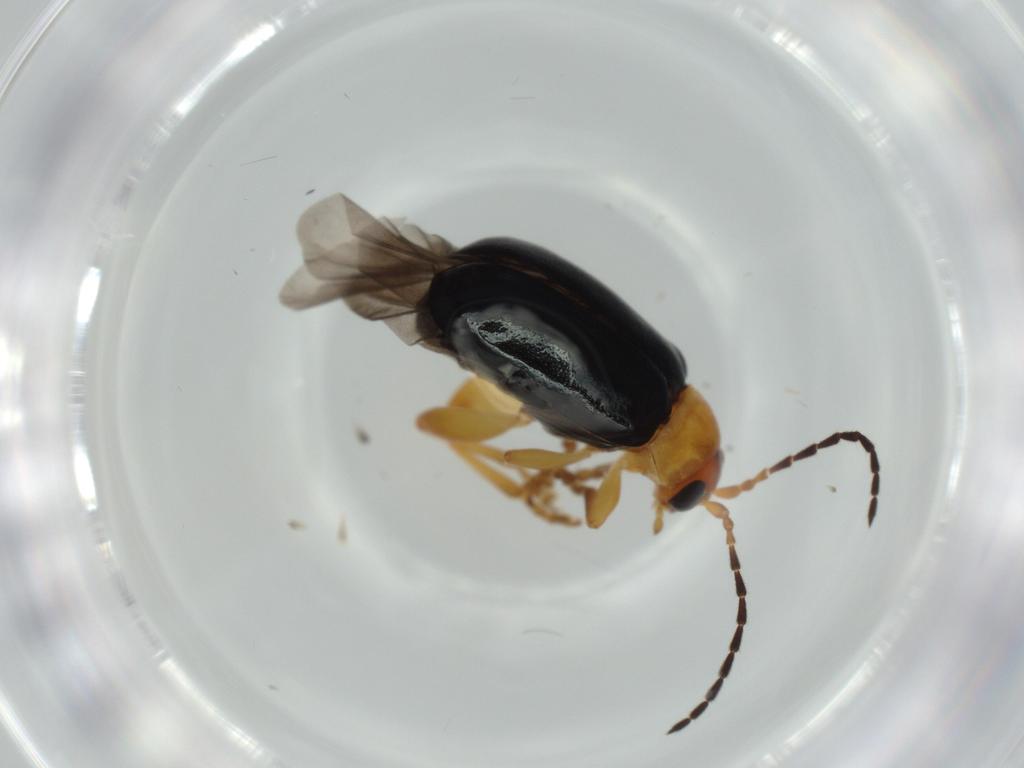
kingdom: Animalia
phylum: Arthropoda
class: Insecta
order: Coleoptera
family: Chrysomelidae
